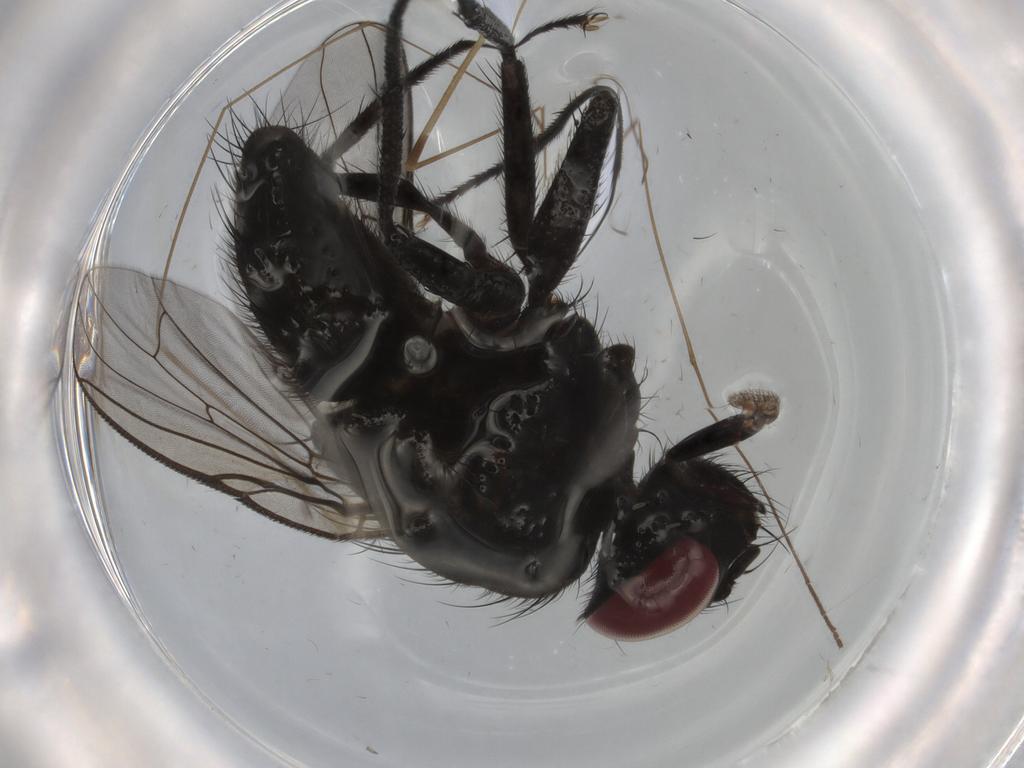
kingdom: Animalia
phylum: Arthropoda
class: Insecta
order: Diptera
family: Muscidae
